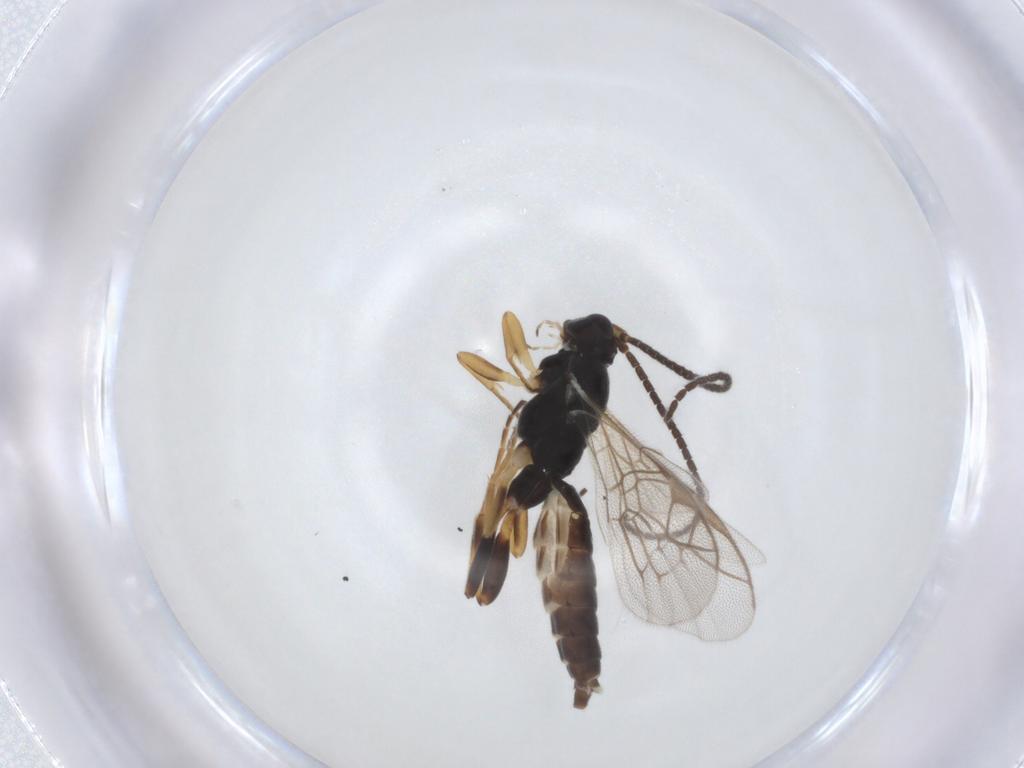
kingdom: Animalia
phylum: Arthropoda
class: Insecta
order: Hymenoptera
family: Ichneumonidae
